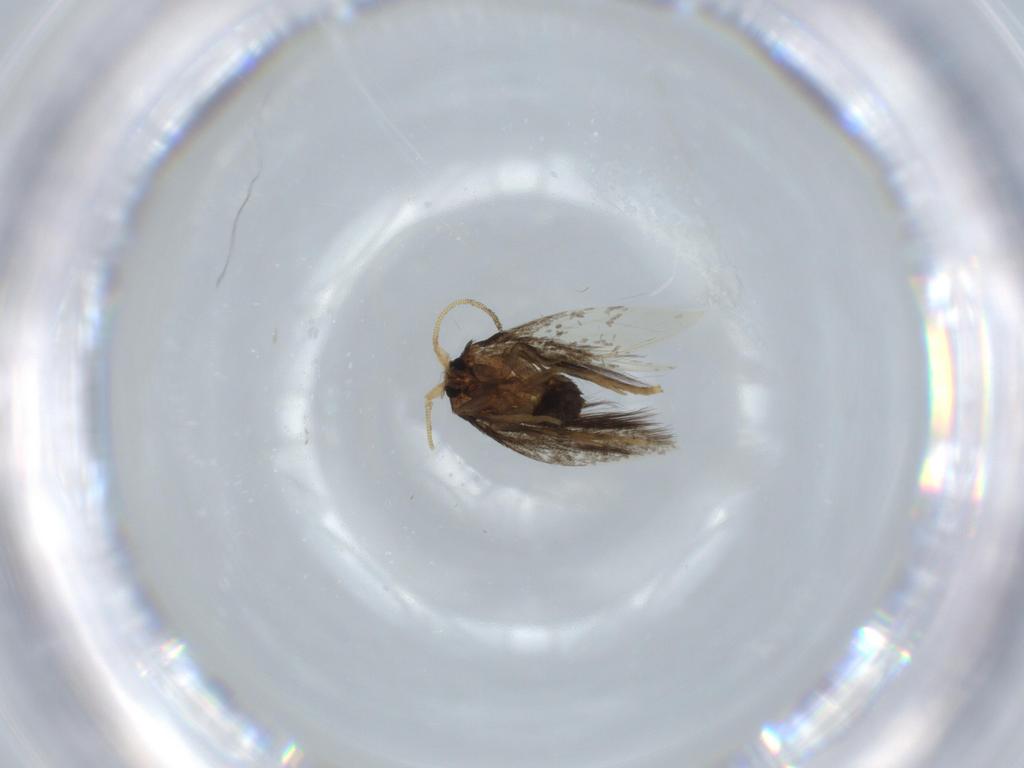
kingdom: Animalia
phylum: Arthropoda
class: Insecta
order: Lepidoptera
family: Nepticulidae
